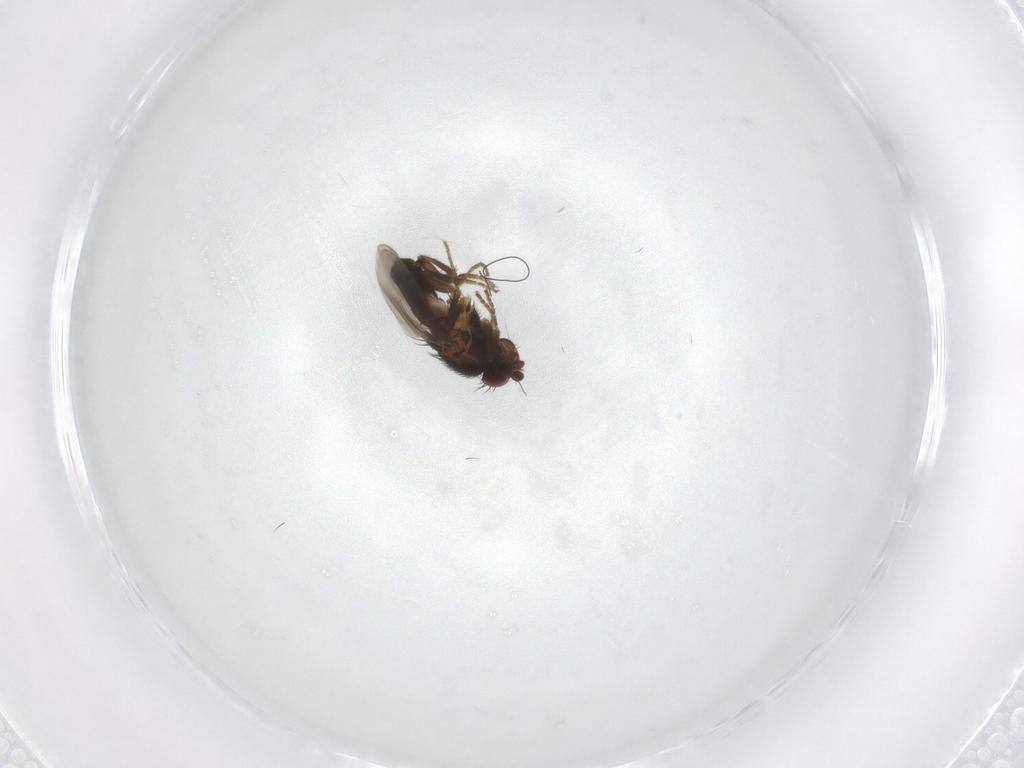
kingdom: Animalia
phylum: Arthropoda
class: Insecta
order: Diptera
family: Sphaeroceridae
